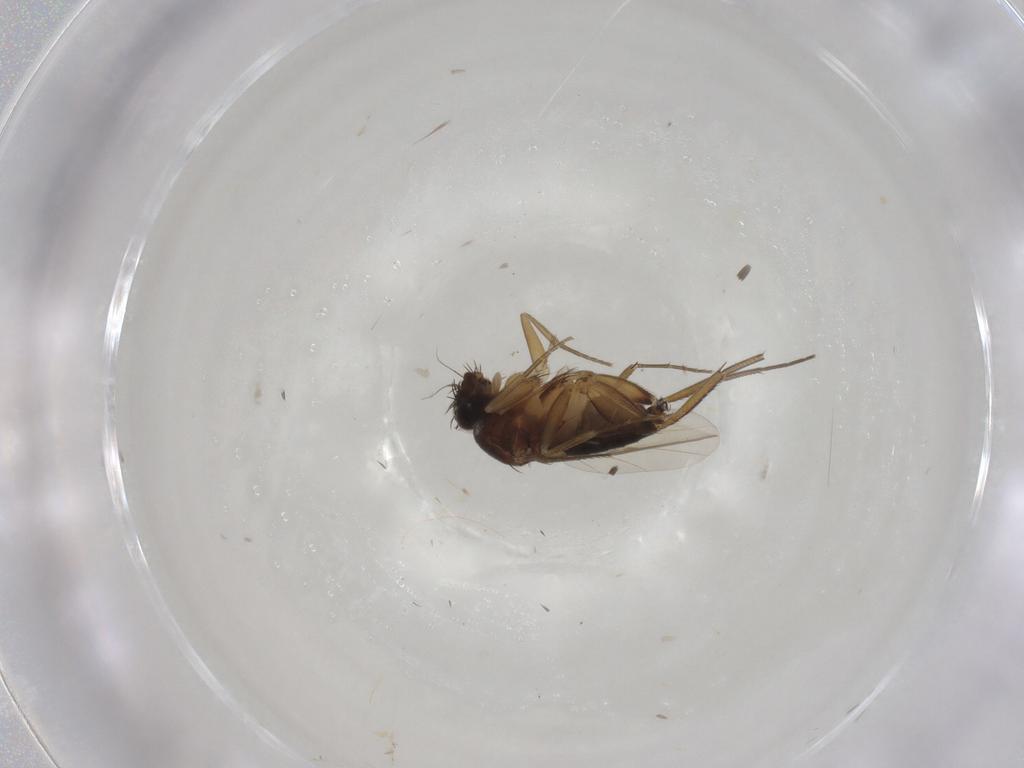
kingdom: Animalia
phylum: Arthropoda
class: Insecta
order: Diptera
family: Phoridae
